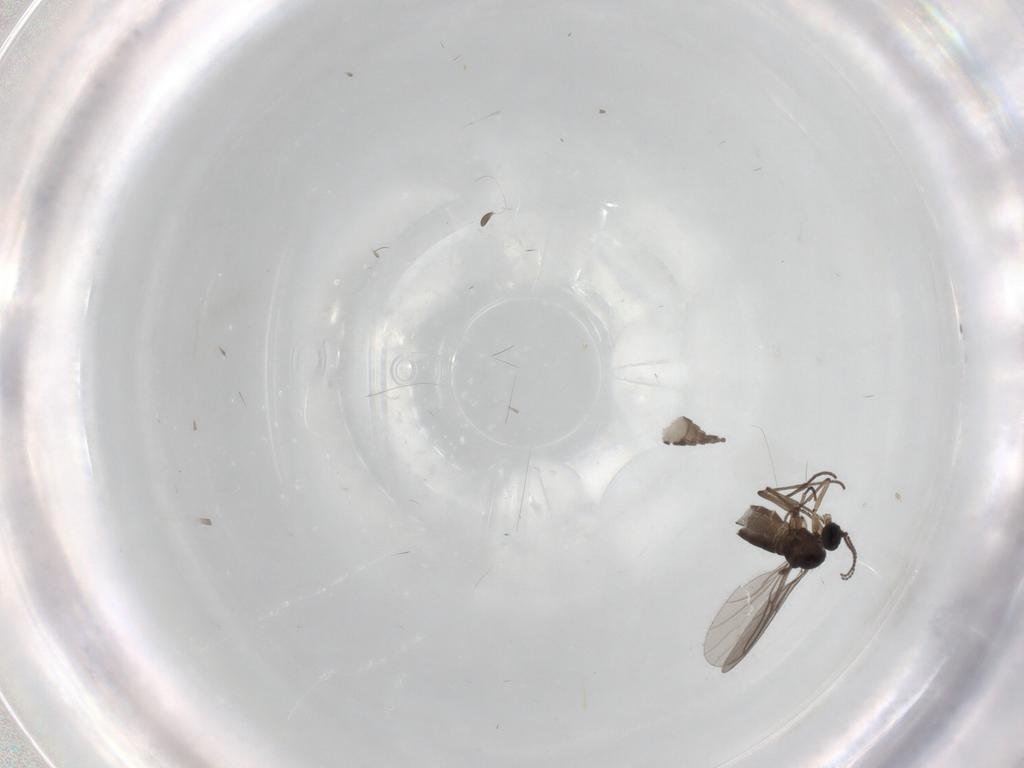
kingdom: Animalia
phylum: Arthropoda
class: Insecta
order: Diptera
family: Sciaridae
